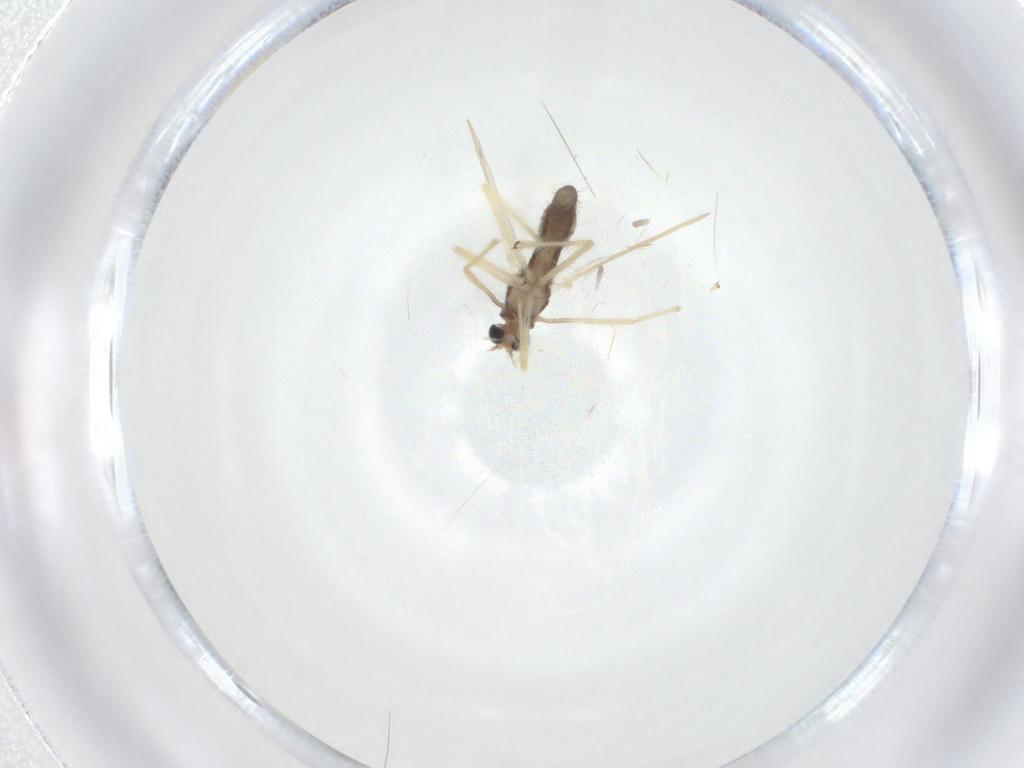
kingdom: Animalia
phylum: Arthropoda
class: Insecta
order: Diptera
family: Chironomidae
